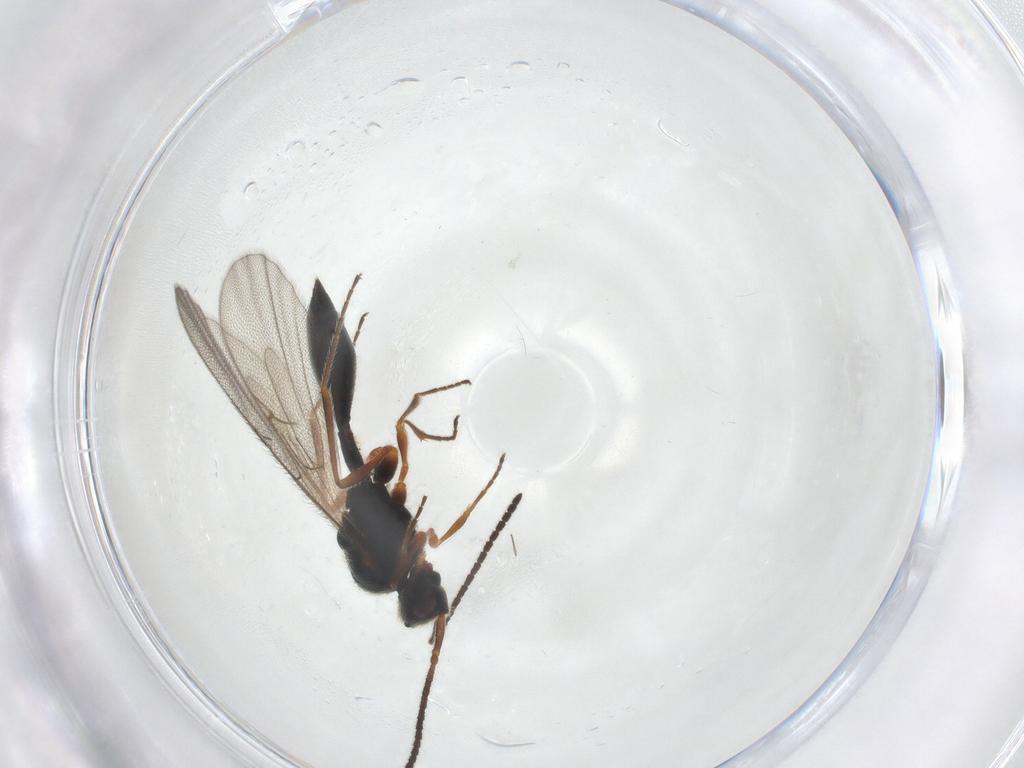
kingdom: Animalia
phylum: Arthropoda
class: Insecta
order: Hymenoptera
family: Diapriidae
